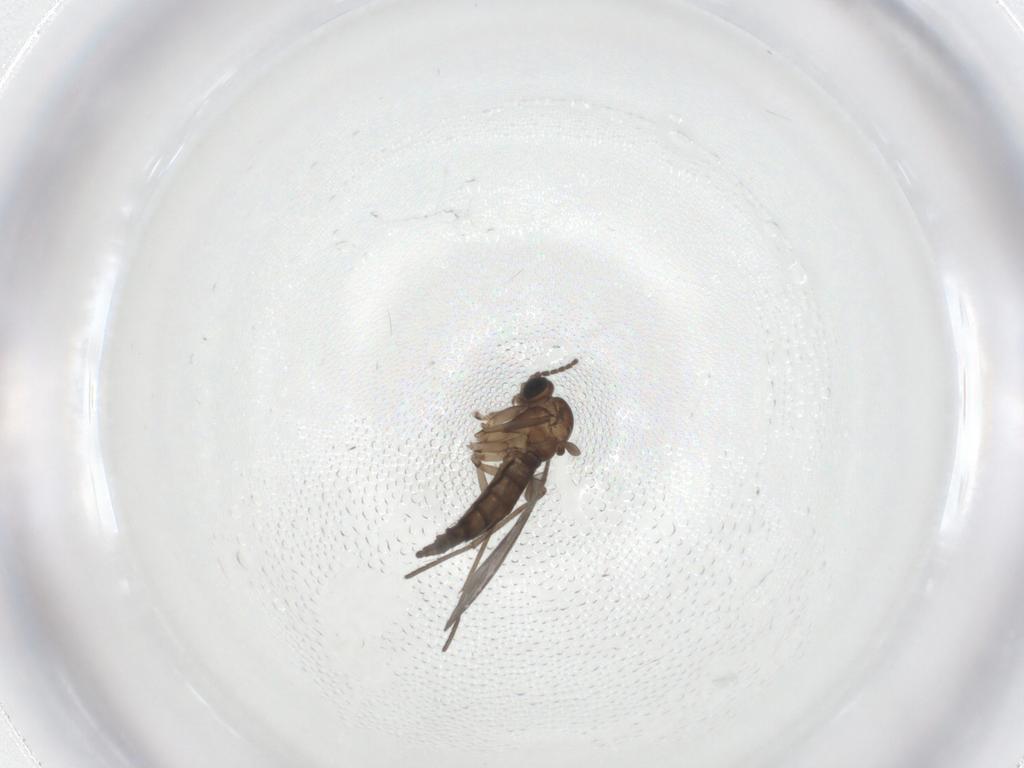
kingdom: Animalia
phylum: Arthropoda
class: Insecta
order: Diptera
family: Sciaridae
